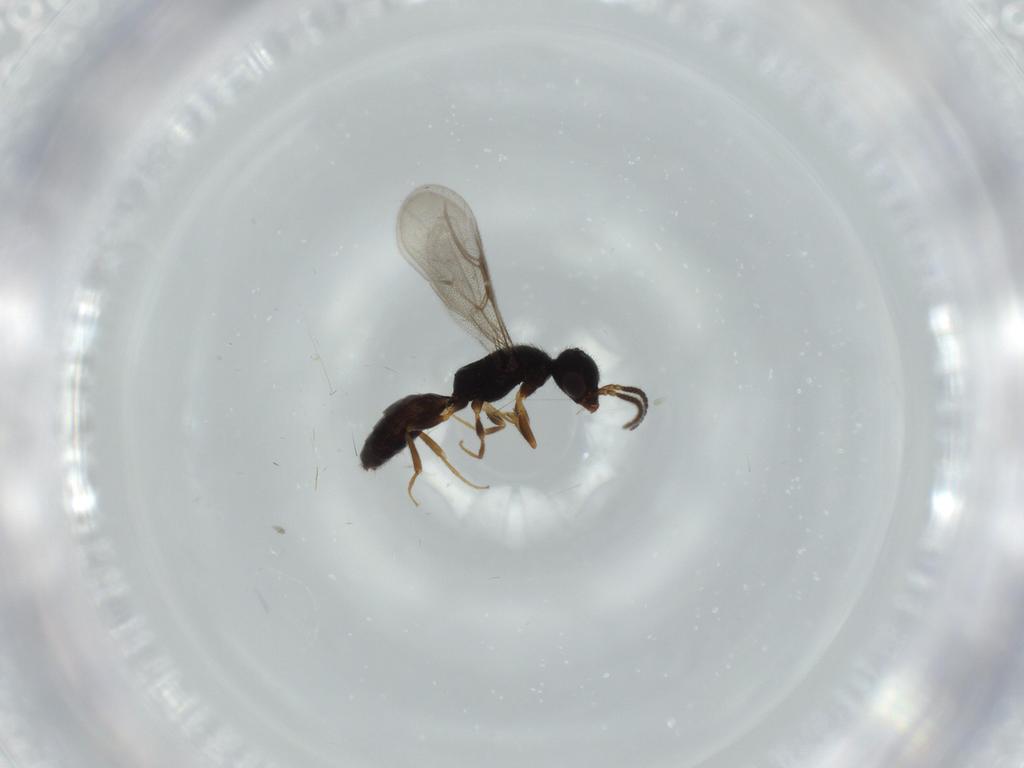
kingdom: Animalia
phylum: Arthropoda
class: Insecta
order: Hymenoptera
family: Bethylidae
